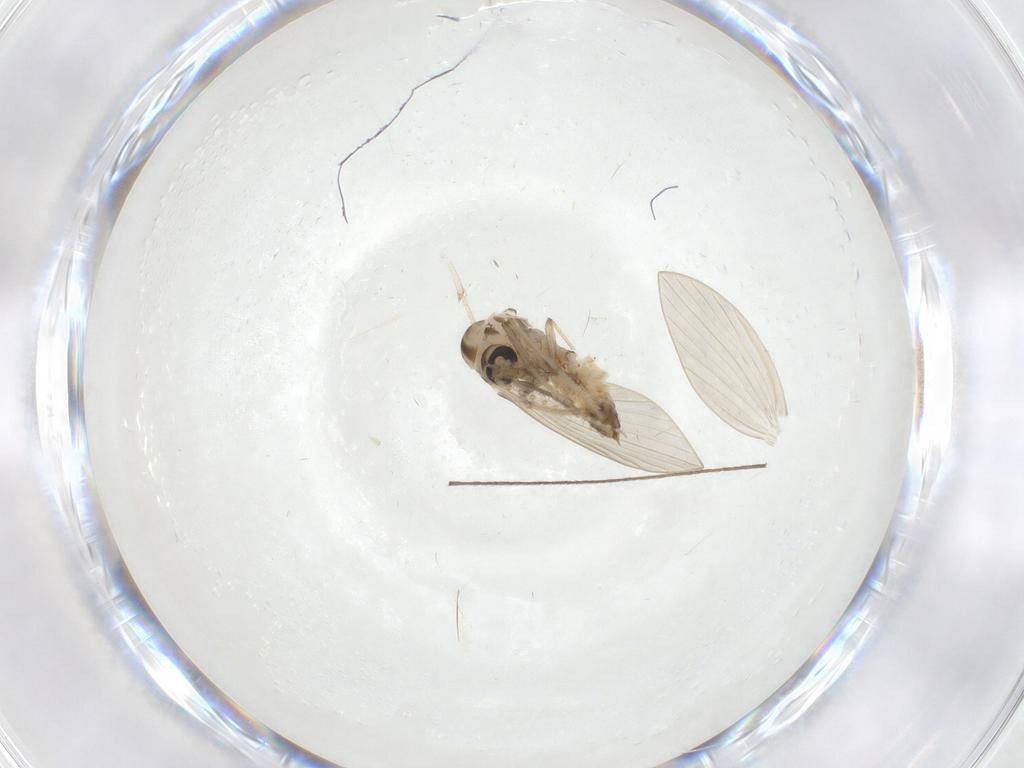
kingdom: Animalia
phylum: Arthropoda
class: Insecta
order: Diptera
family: Psychodidae
